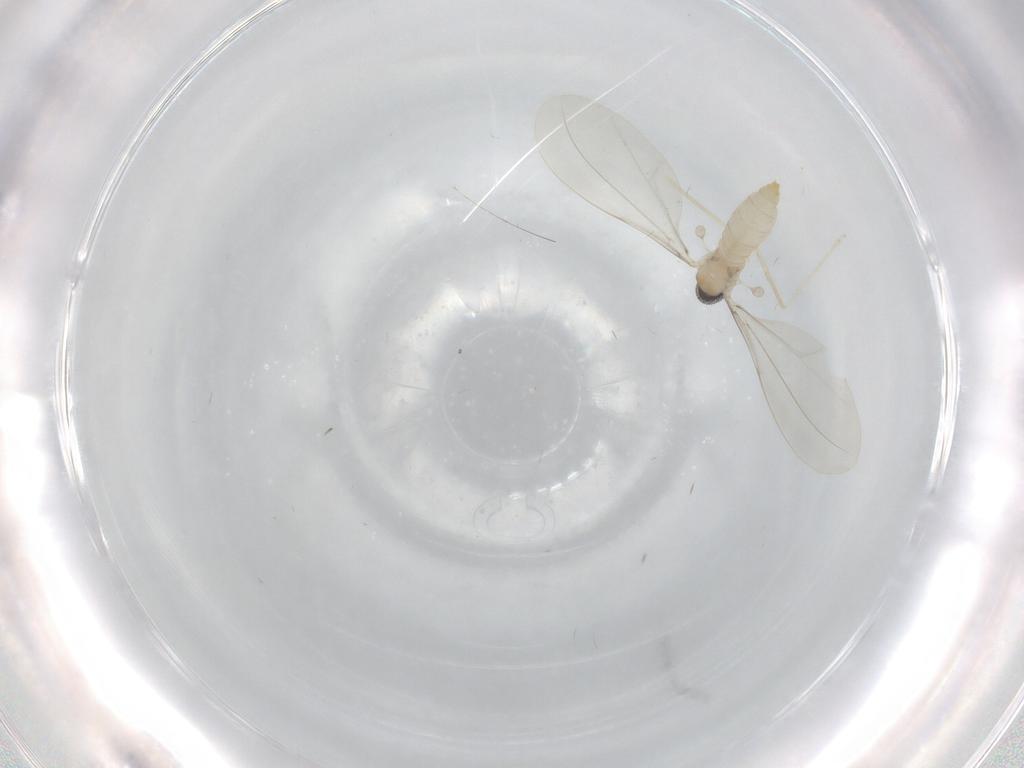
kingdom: Animalia
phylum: Arthropoda
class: Insecta
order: Diptera
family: Cecidomyiidae
